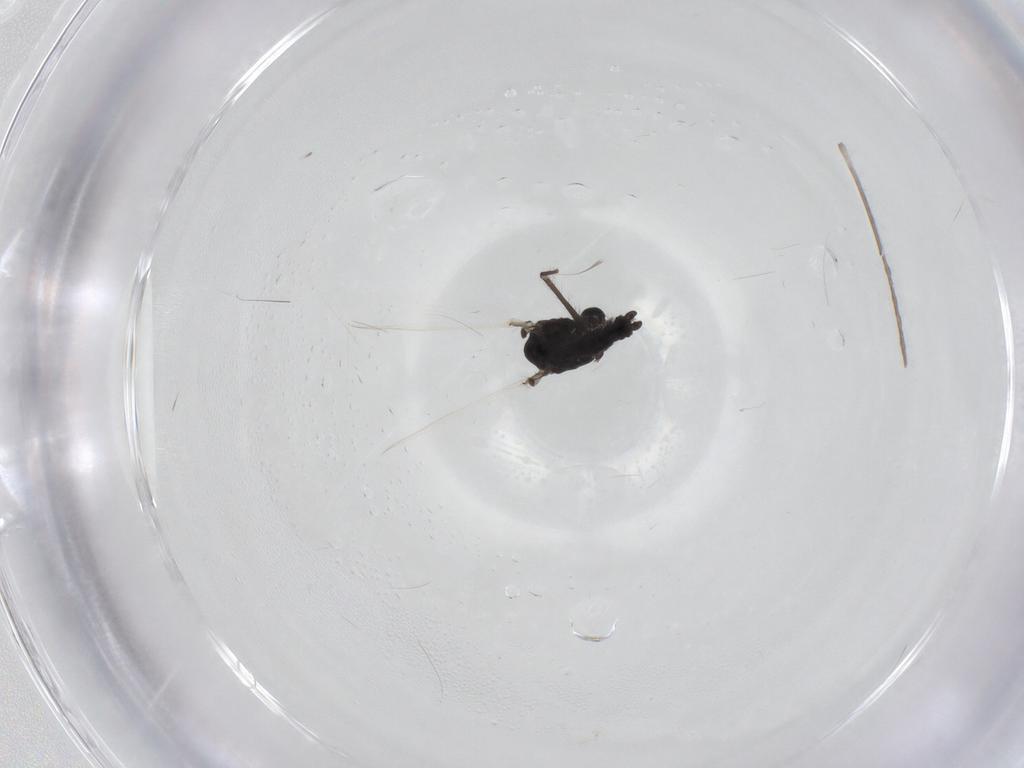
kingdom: Animalia
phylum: Arthropoda
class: Insecta
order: Diptera
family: Chironomidae
